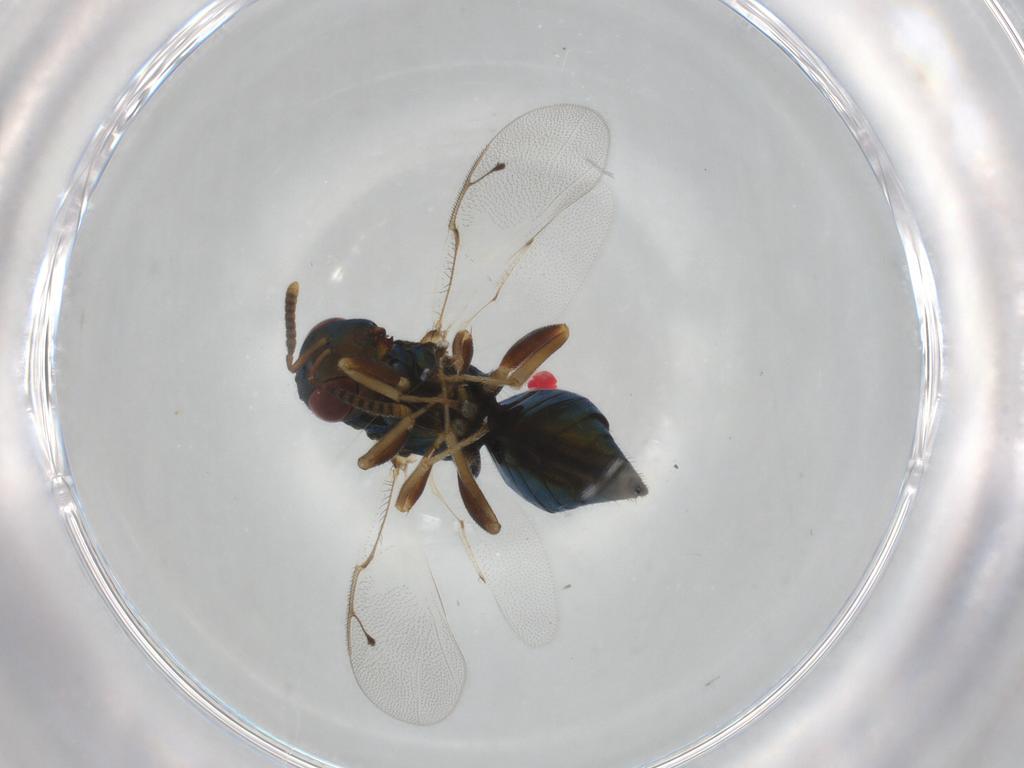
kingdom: Animalia
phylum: Arthropoda
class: Insecta
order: Hymenoptera
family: Pteromalidae
